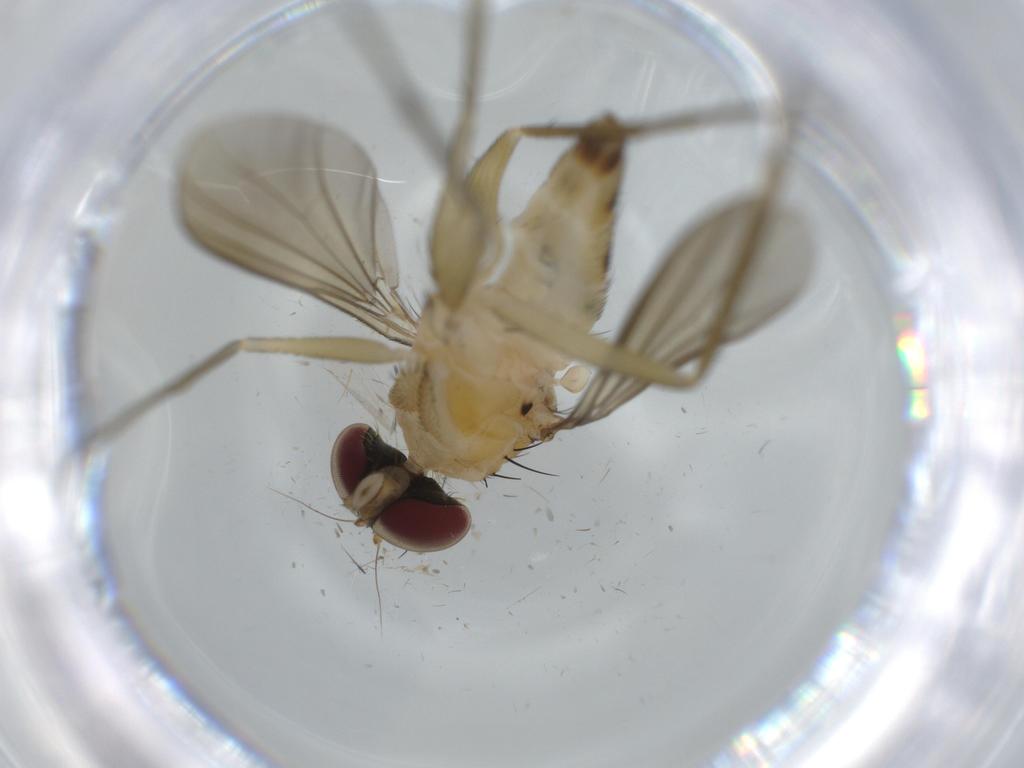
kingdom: Animalia
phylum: Arthropoda
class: Insecta
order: Diptera
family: Dolichopodidae
